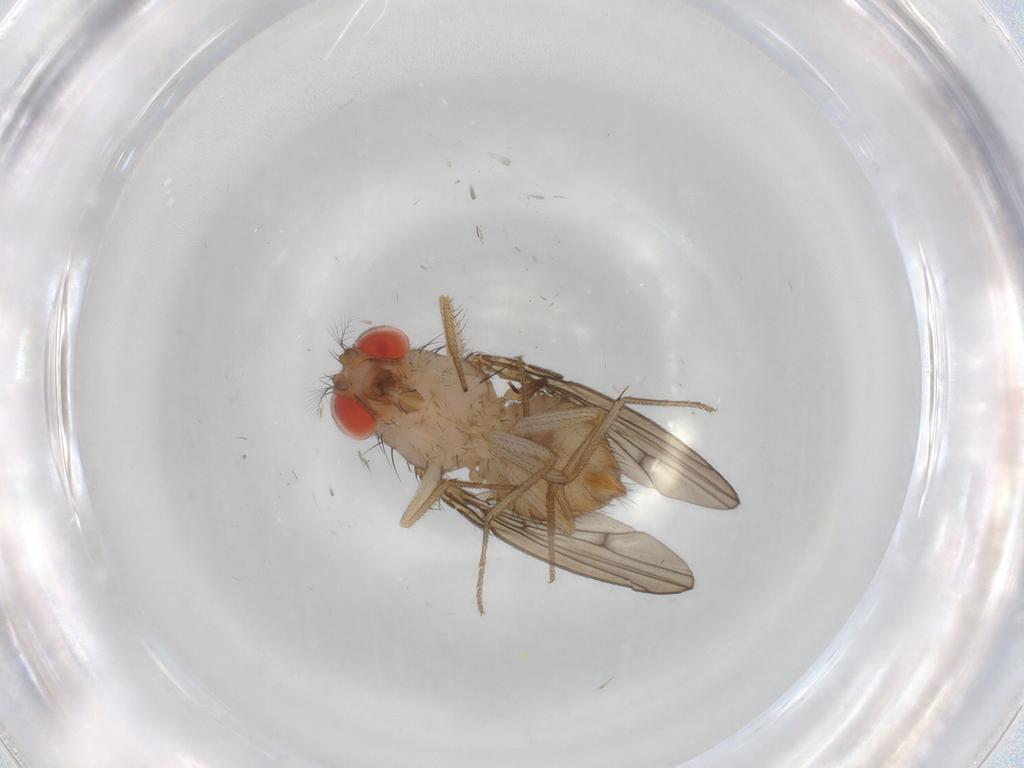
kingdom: Animalia
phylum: Arthropoda
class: Insecta
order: Diptera
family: Drosophilidae
